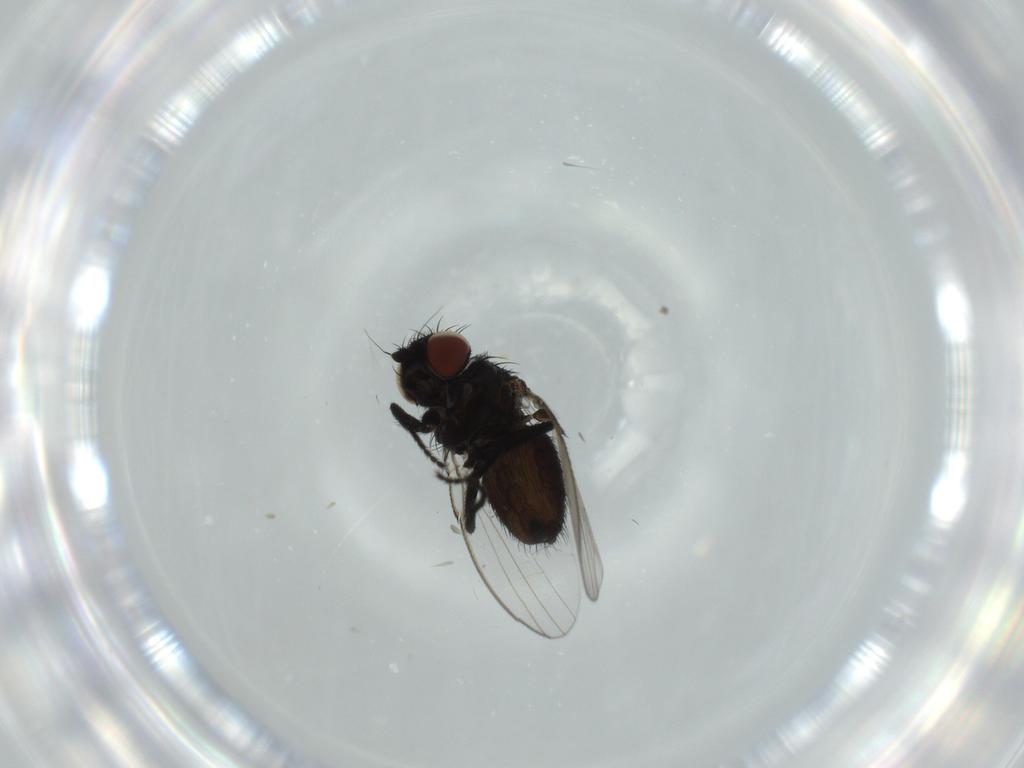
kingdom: Animalia
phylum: Arthropoda
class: Insecta
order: Diptera
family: Milichiidae
